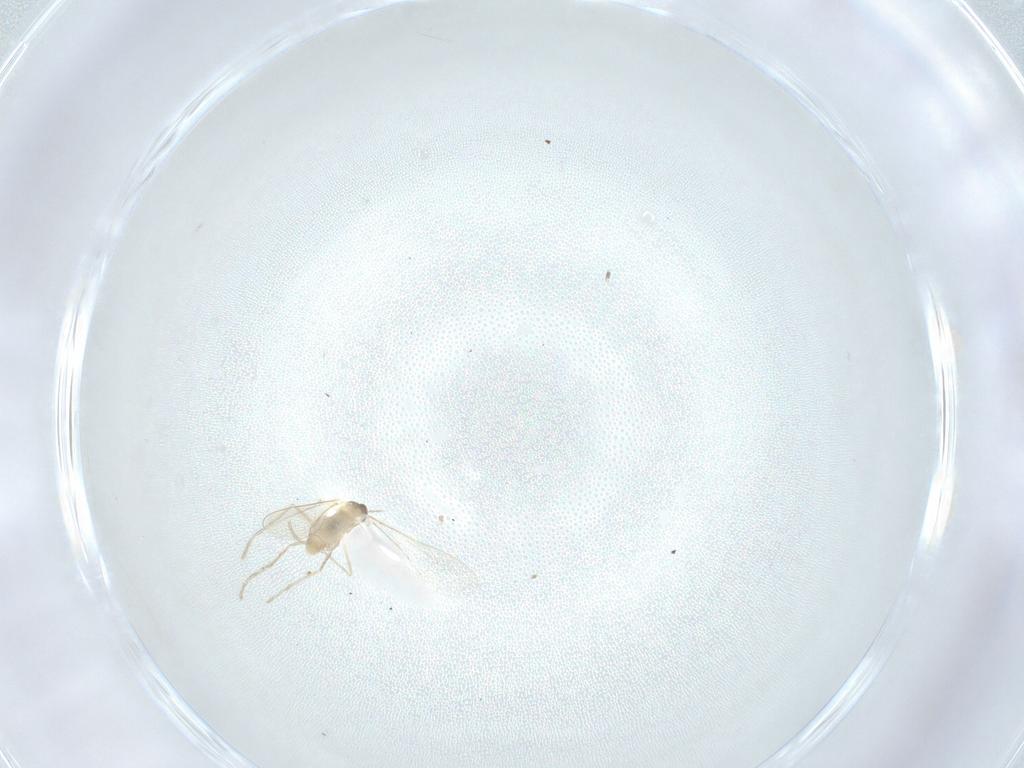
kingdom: Animalia
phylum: Arthropoda
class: Insecta
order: Diptera
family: Cecidomyiidae
